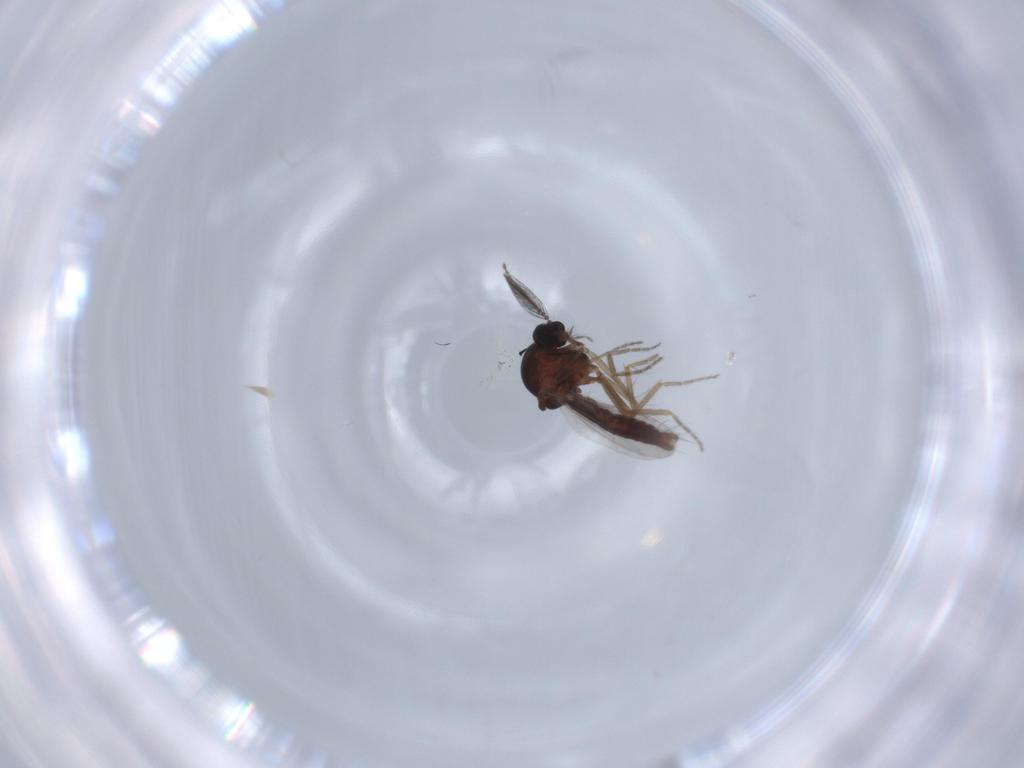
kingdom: Animalia
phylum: Arthropoda
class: Insecta
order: Diptera
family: Ceratopogonidae
